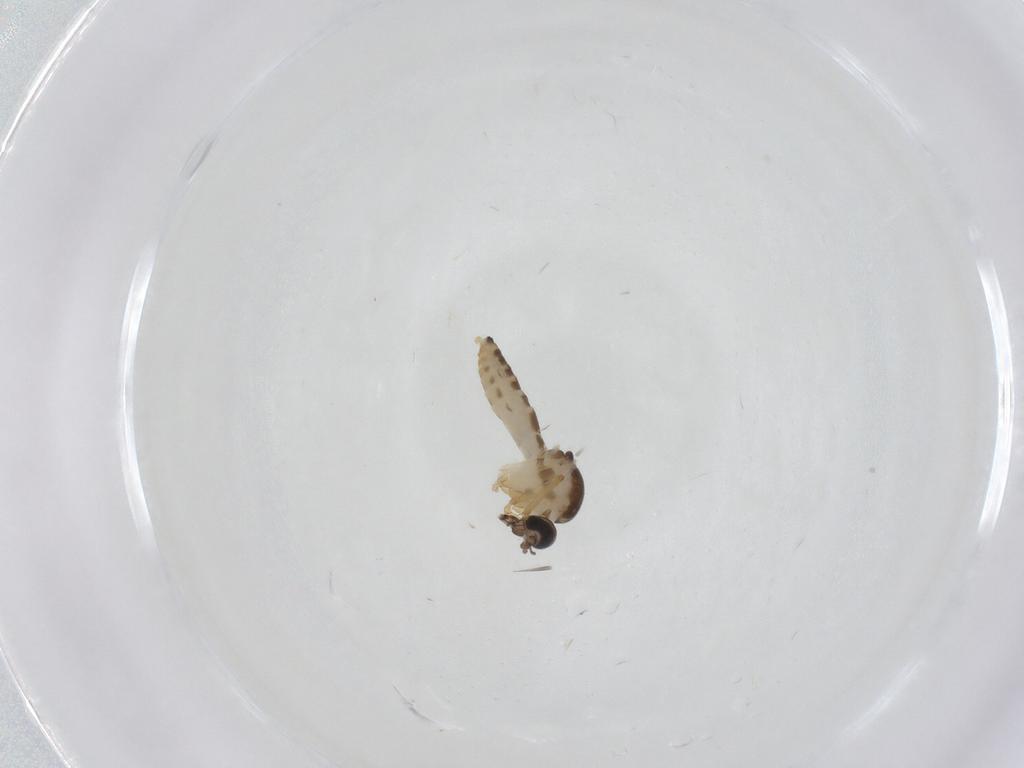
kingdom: Animalia
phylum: Arthropoda
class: Insecta
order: Diptera
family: Ceratopogonidae
